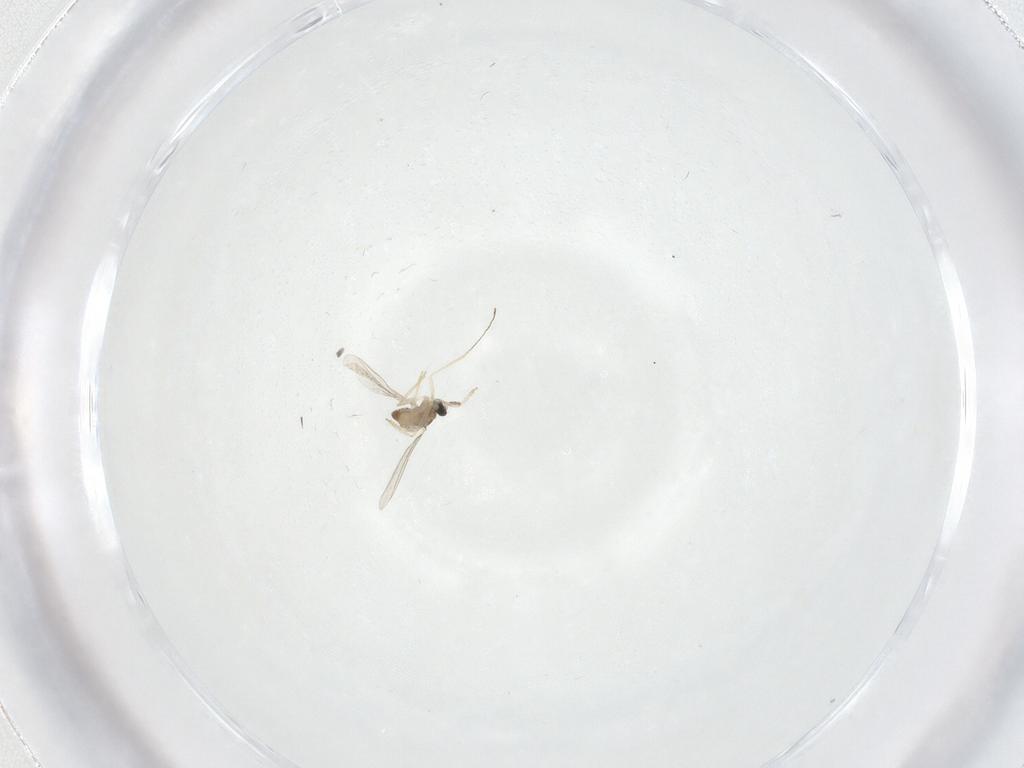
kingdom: Animalia
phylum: Arthropoda
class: Insecta
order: Diptera
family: Cecidomyiidae
